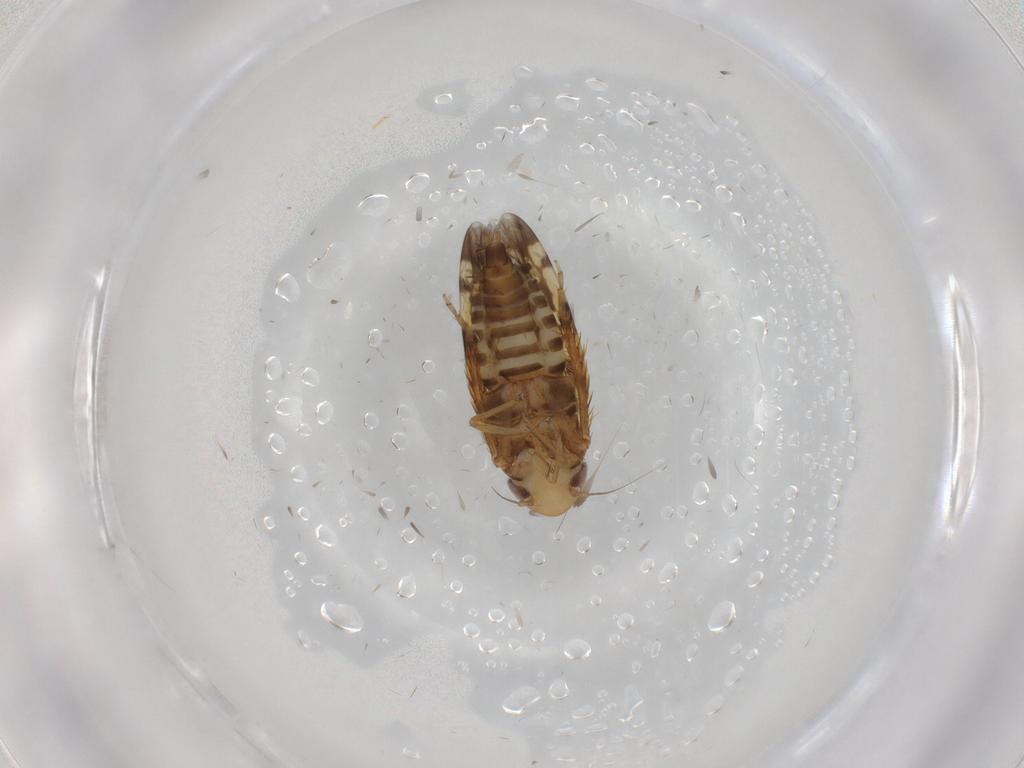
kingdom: Animalia
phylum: Arthropoda
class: Insecta
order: Hemiptera
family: Cicadellidae
